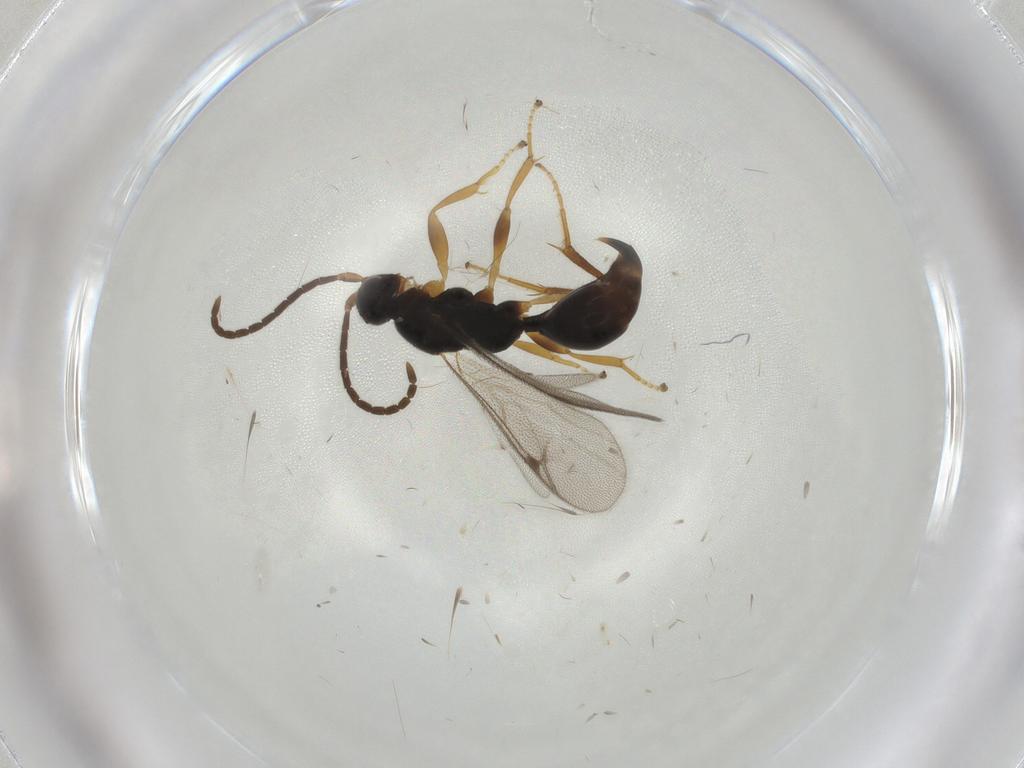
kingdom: Animalia
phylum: Arthropoda
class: Insecta
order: Hymenoptera
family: Proctotrupidae
